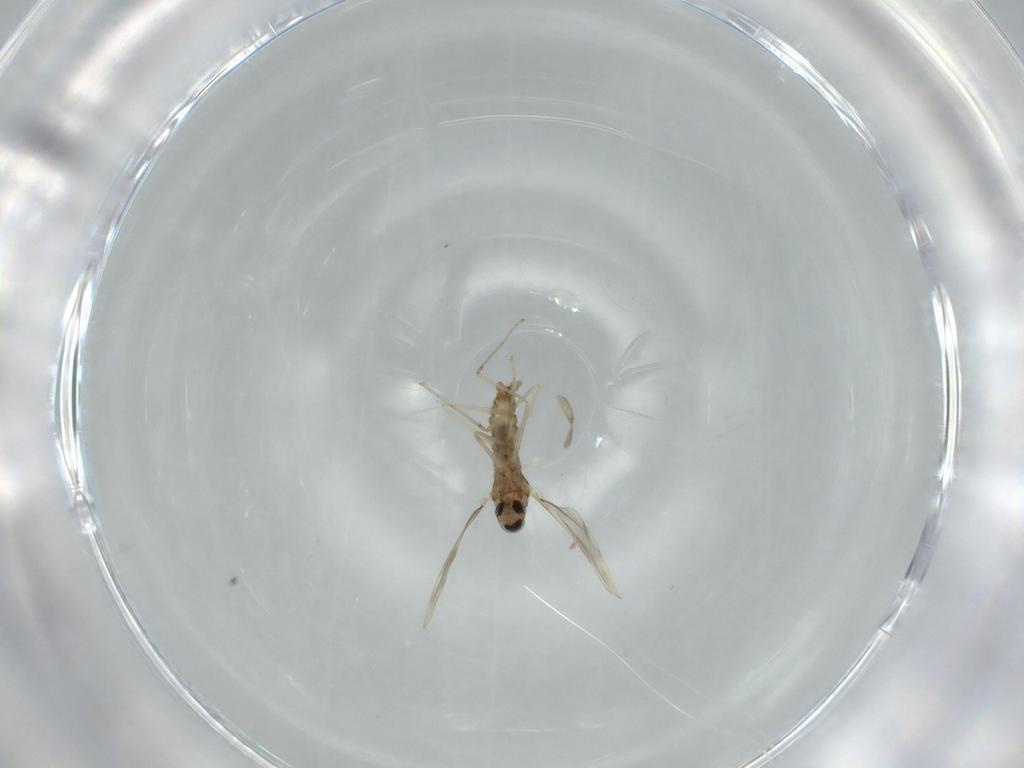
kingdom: Animalia
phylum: Arthropoda
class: Insecta
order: Diptera
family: Cecidomyiidae
